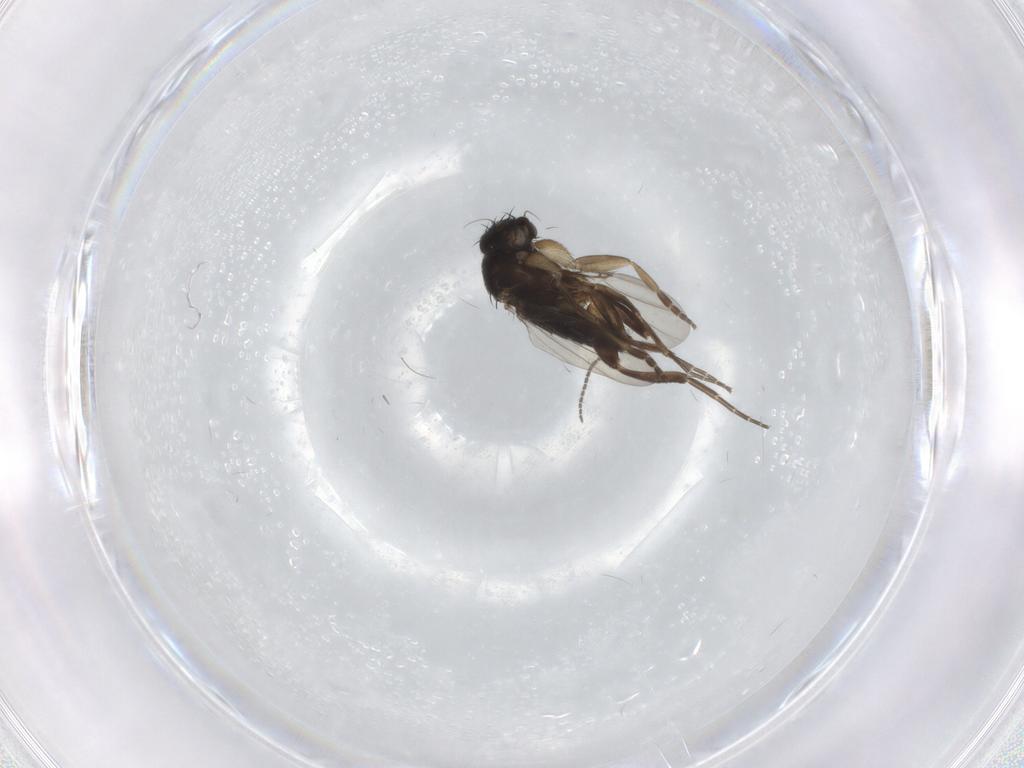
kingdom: Animalia
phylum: Arthropoda
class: Insecta
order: Diptera
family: Phoridae
